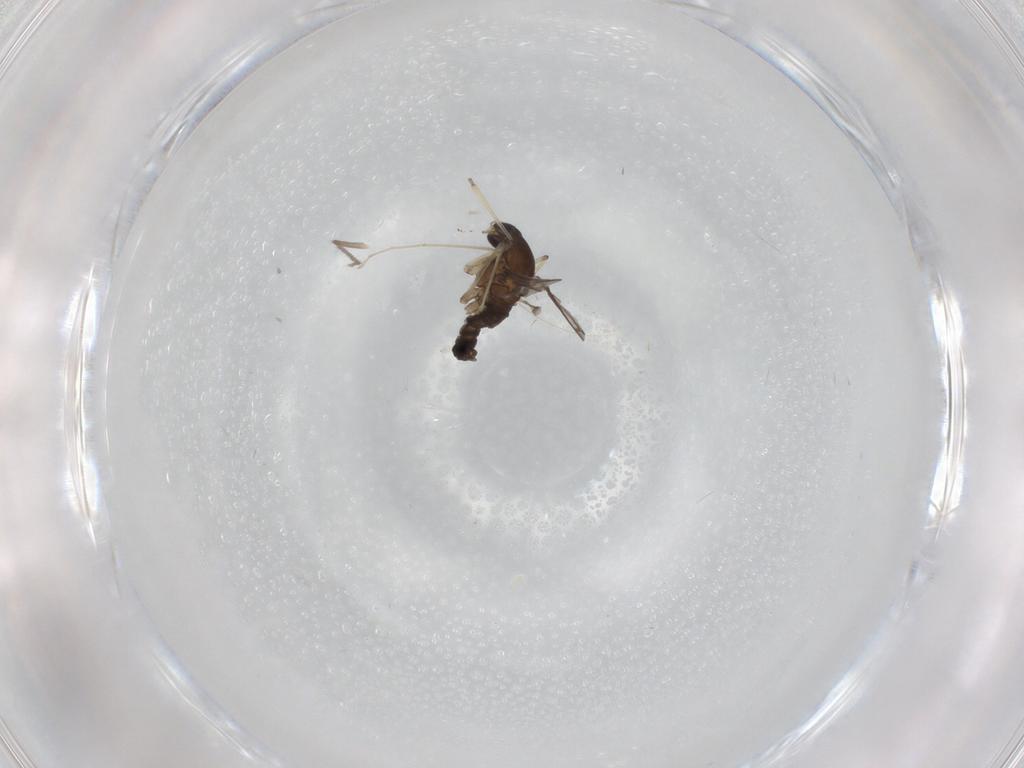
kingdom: Animalia
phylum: Arthropoda
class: Insecta
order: Diptera
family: Cecidomyiidae
